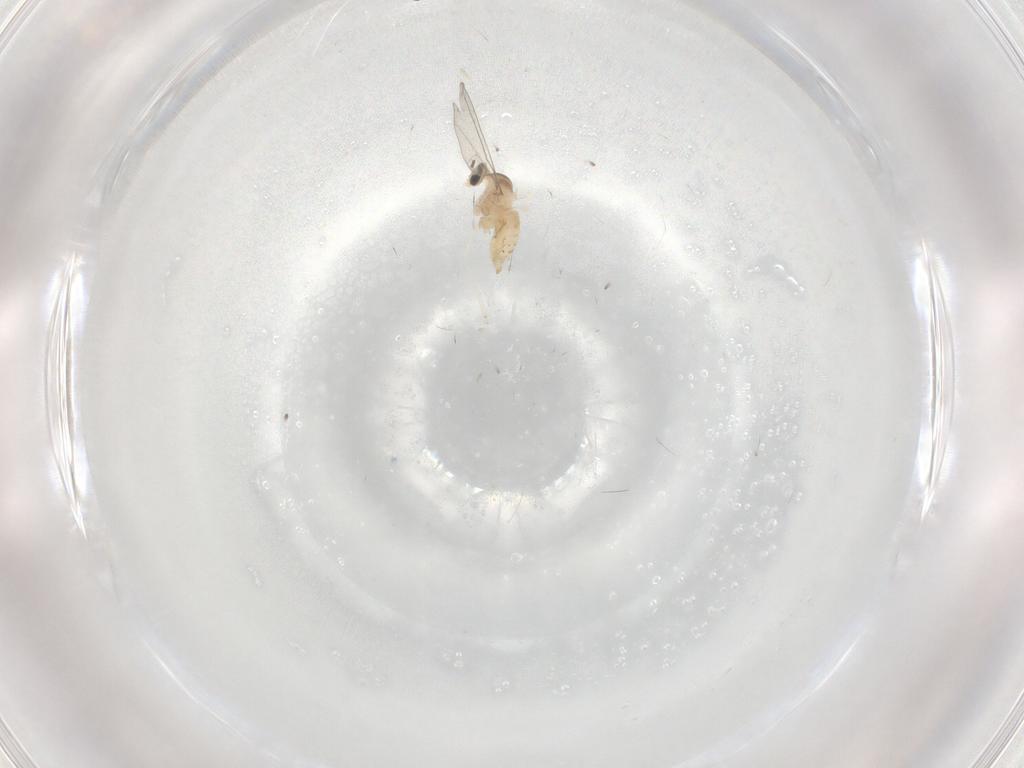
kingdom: Animalia
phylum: Arthropoda
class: Insecta
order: Diptera
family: Cecidomyiidae
